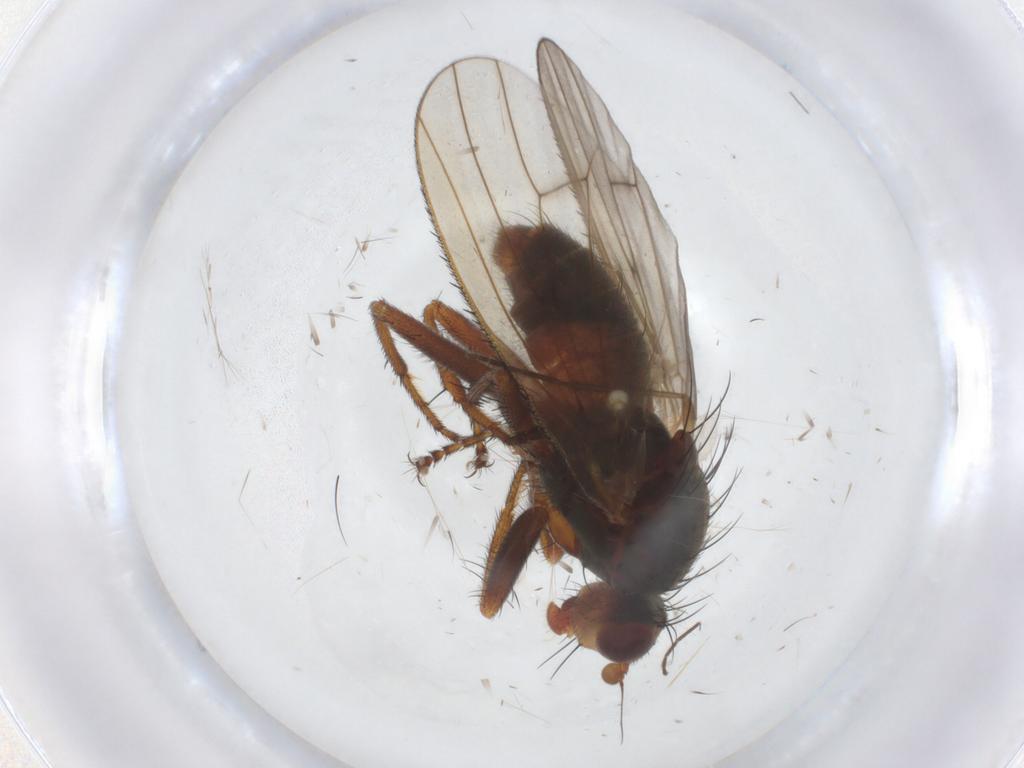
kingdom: Animalia
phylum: Arthropoda
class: Insecta
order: Diptera
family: Heleomyzidae
